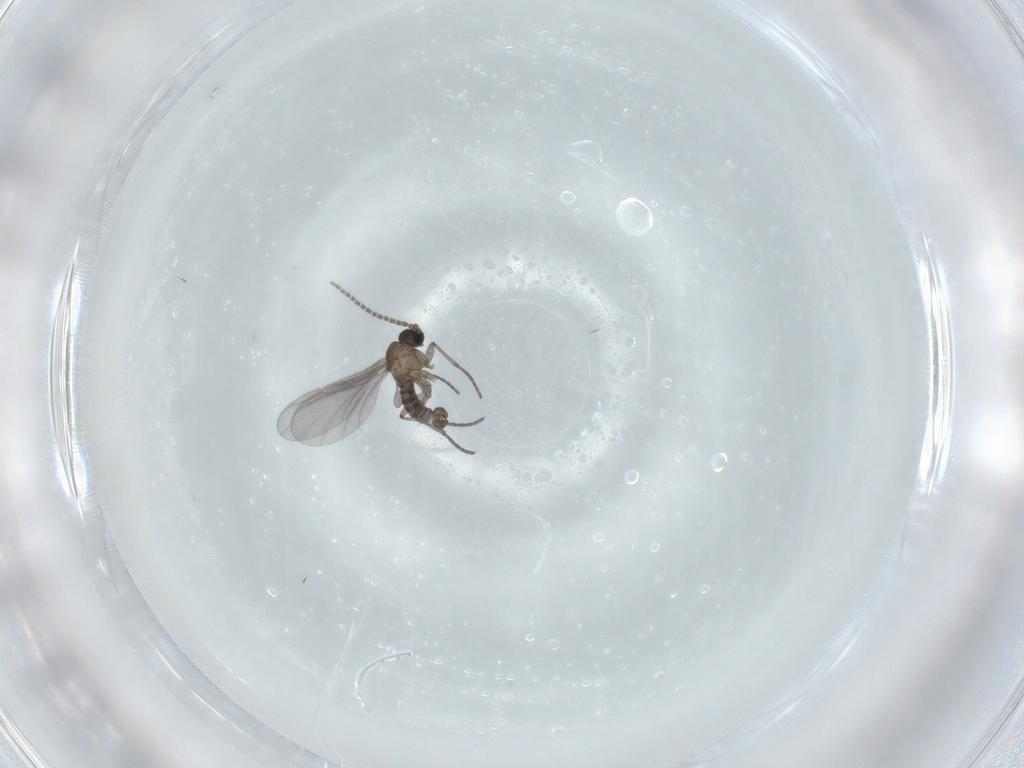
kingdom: Animalia
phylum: Arthropoda
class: Insecta
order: Diptera
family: Sciaridae
